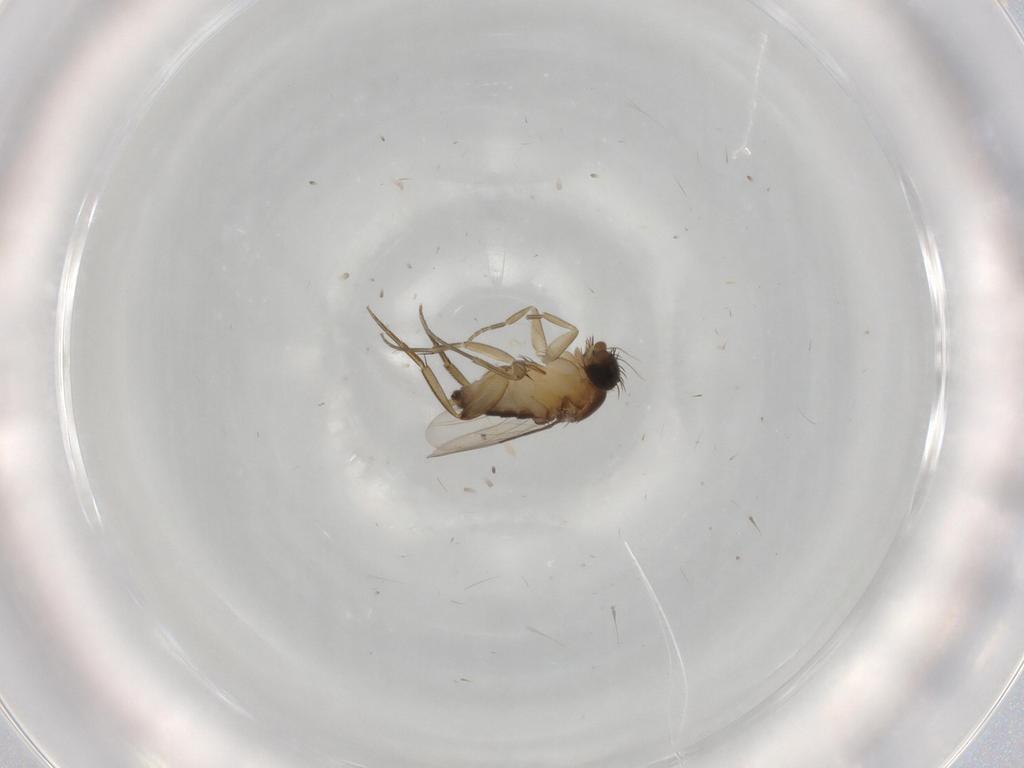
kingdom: Animalia
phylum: Arthropoda
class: Insecta
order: Diptera
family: Phoridae
